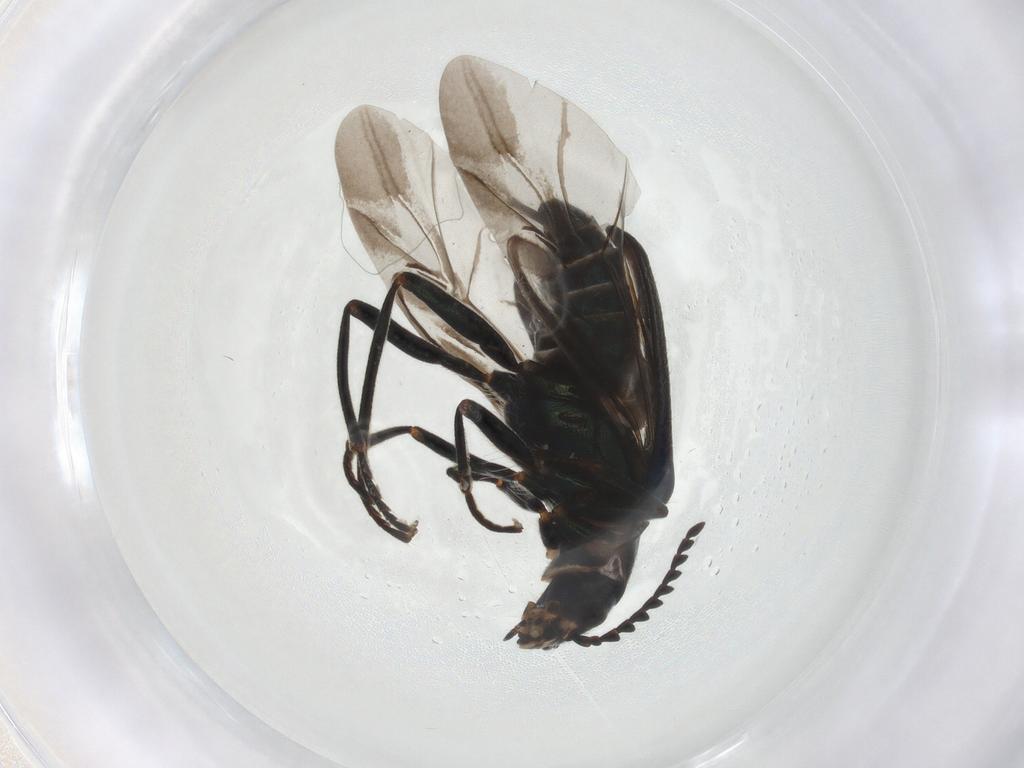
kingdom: Animalia
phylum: Arthropoda
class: Insecta
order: Coleoptera
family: Melyridae
